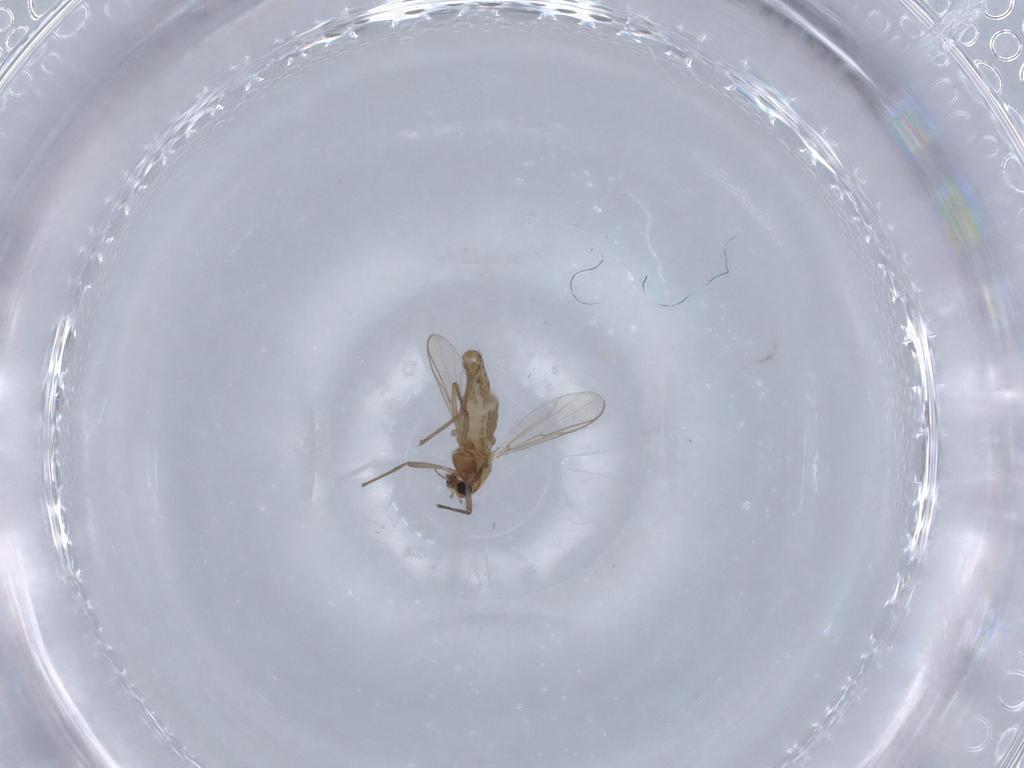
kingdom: Animalia
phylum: Arthropoda
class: Insecta
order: Diptera
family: Chironomidae
